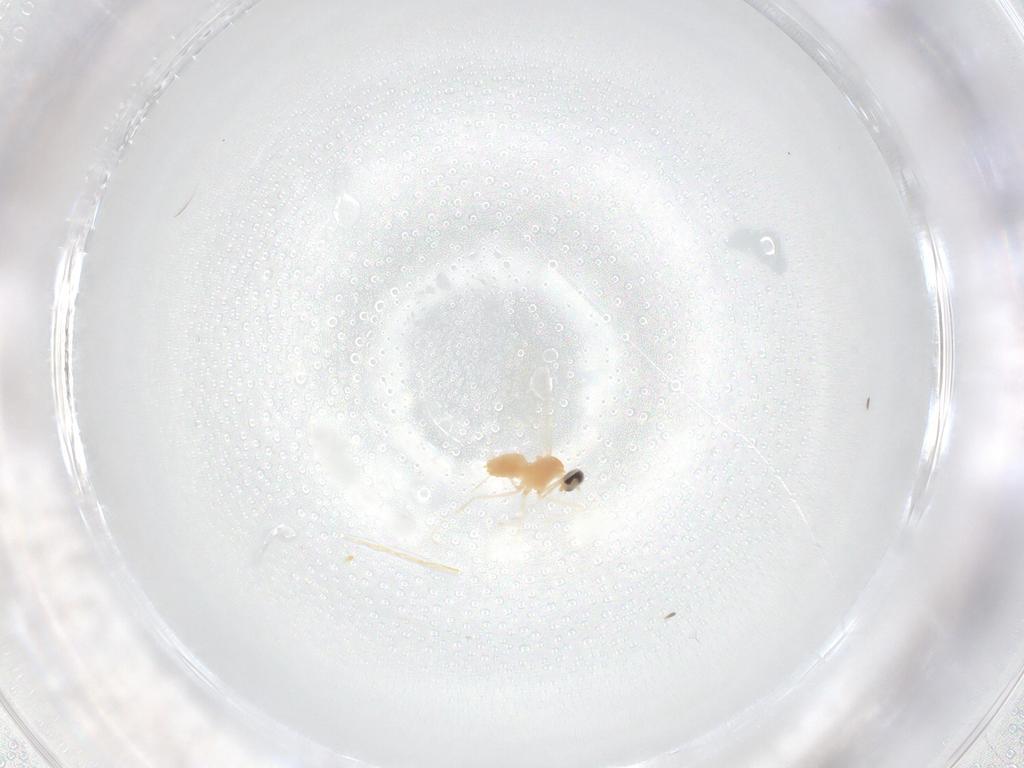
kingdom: Animalia
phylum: Arthropoda
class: Insecta
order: Diptera
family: Cecidomyiidae
